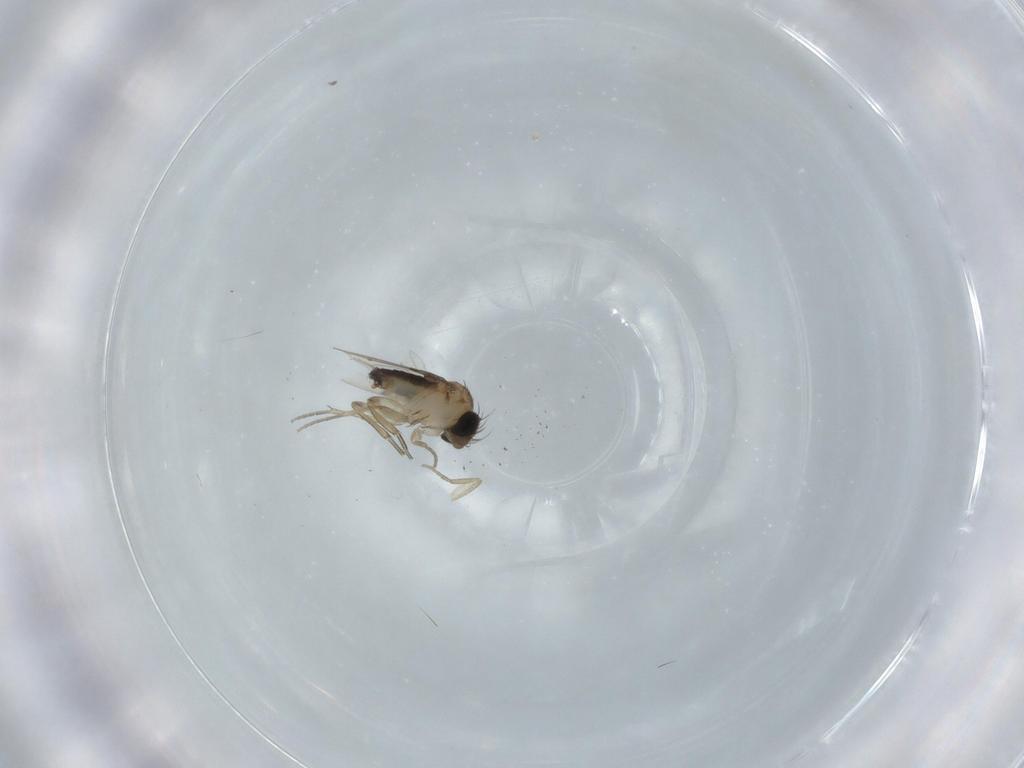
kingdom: Animalia
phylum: Arthropoda
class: Insecta
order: Diptera
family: Phoridae
